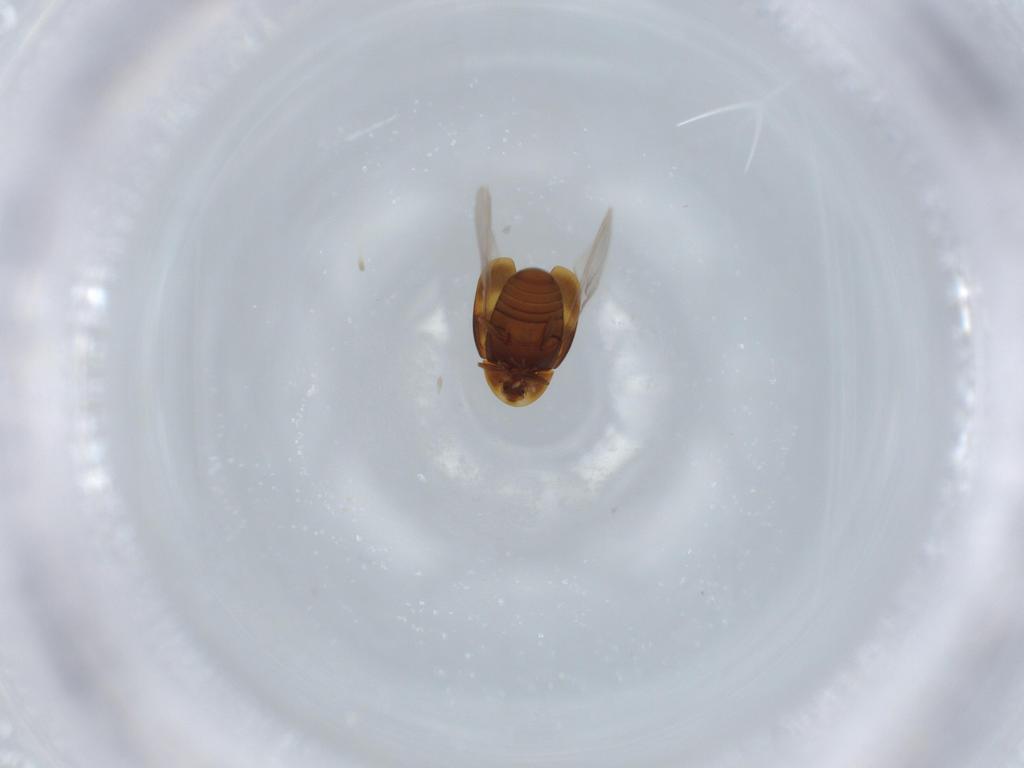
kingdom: Animalia
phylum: Arthropoda
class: Insecta
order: Coleoptera
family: Corylophidae
